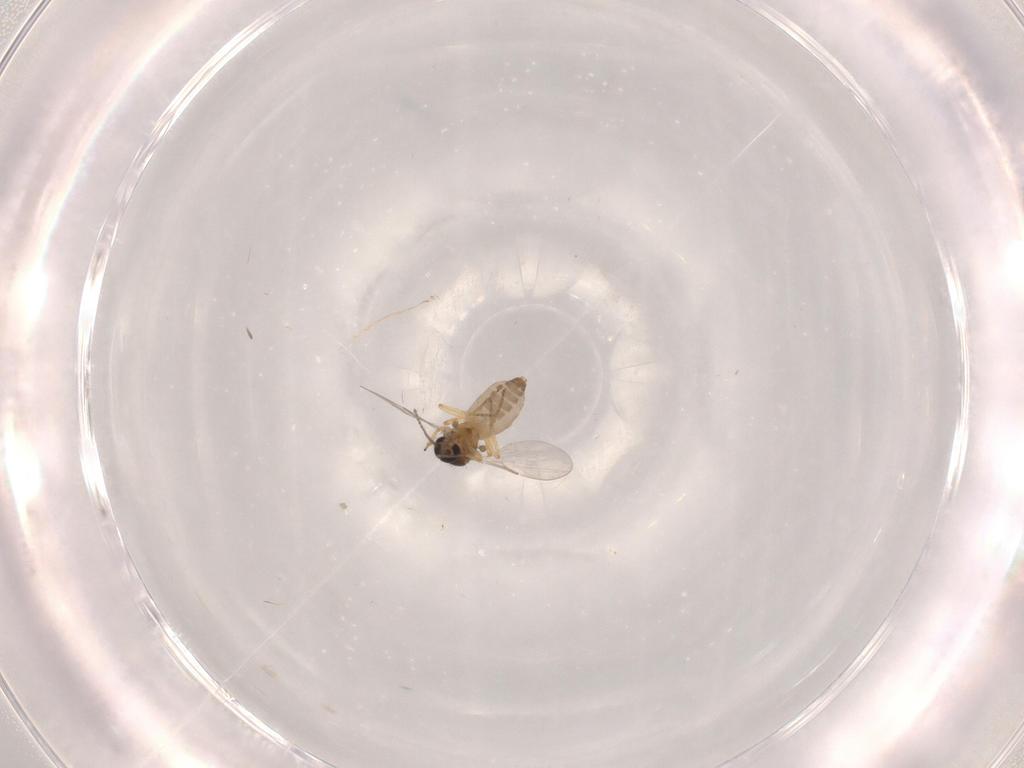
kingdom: Animalia
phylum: Arthropoda
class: Insecta
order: Diptera
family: Ceratopogonidae
